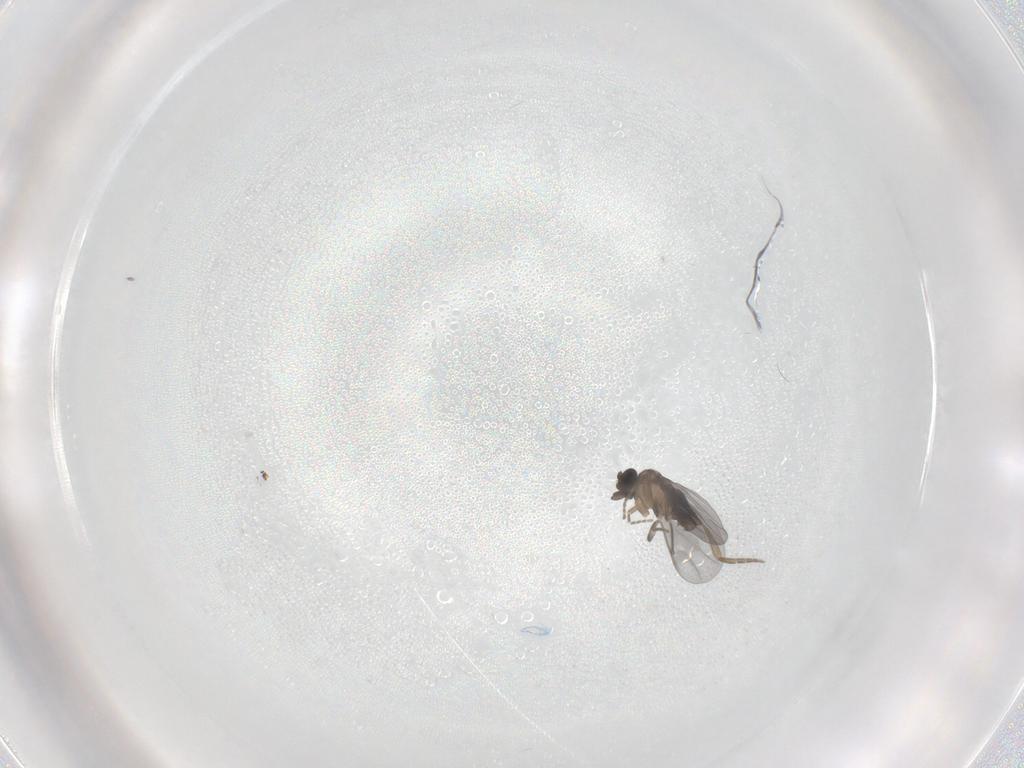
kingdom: Animalia
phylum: Arthropoda
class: Insecta
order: Diptera
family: Phoridae
